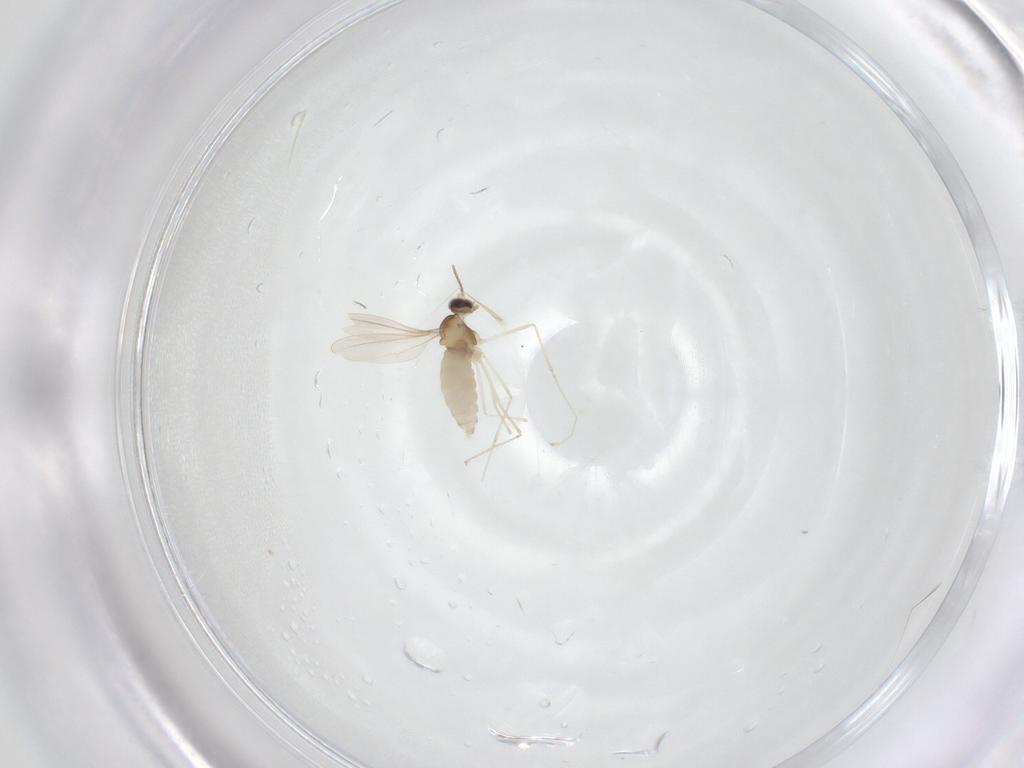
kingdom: Animalia
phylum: Arthropoda
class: Insecta
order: Diptera
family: Cecidomyiidae
